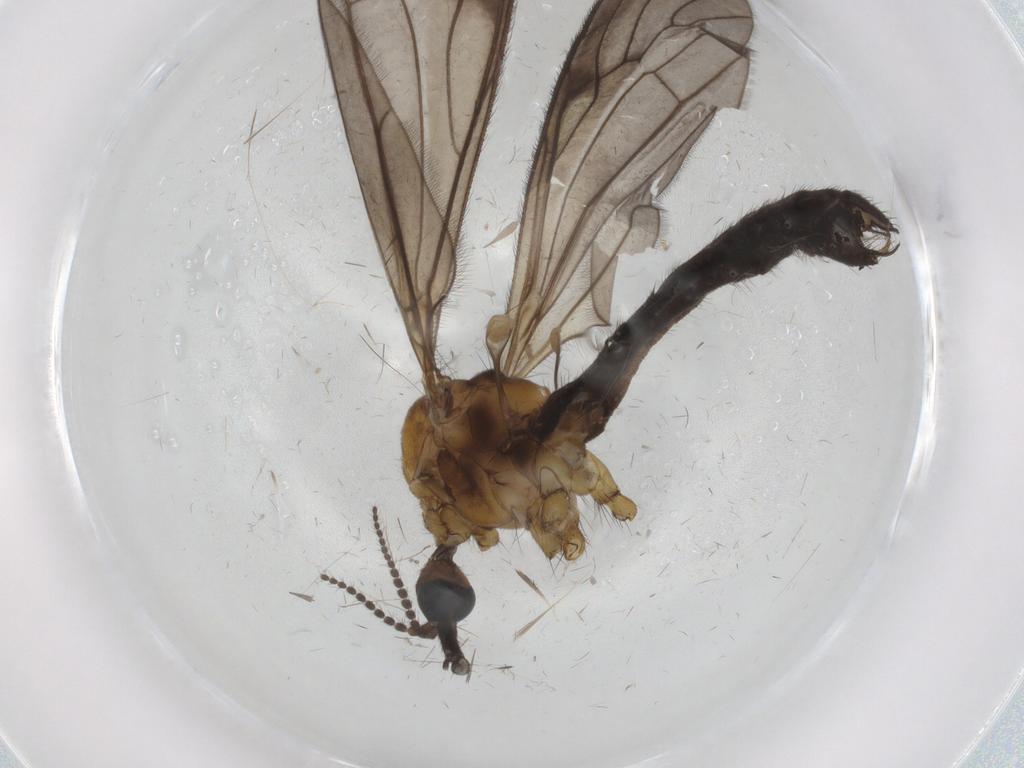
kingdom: Animalia
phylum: Arthropoda
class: Insecta
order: Diptera
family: Limoniidae
